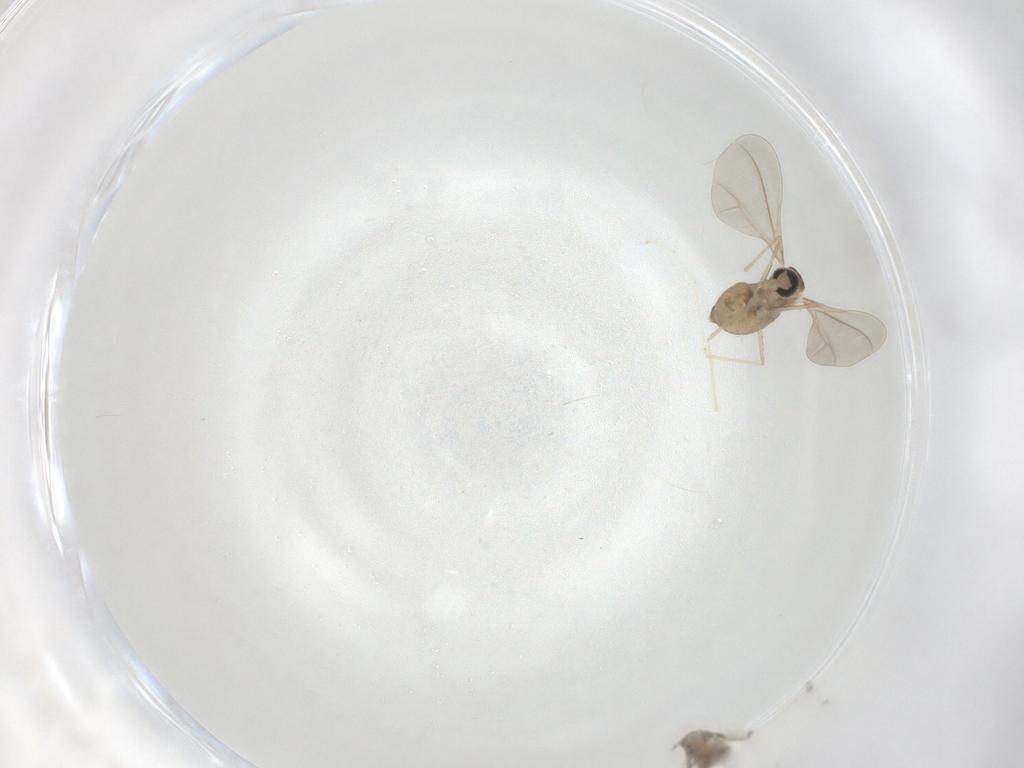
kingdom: Animalia
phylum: Arthropoda
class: Insecta
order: Diptera
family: Cecidomyiidae
